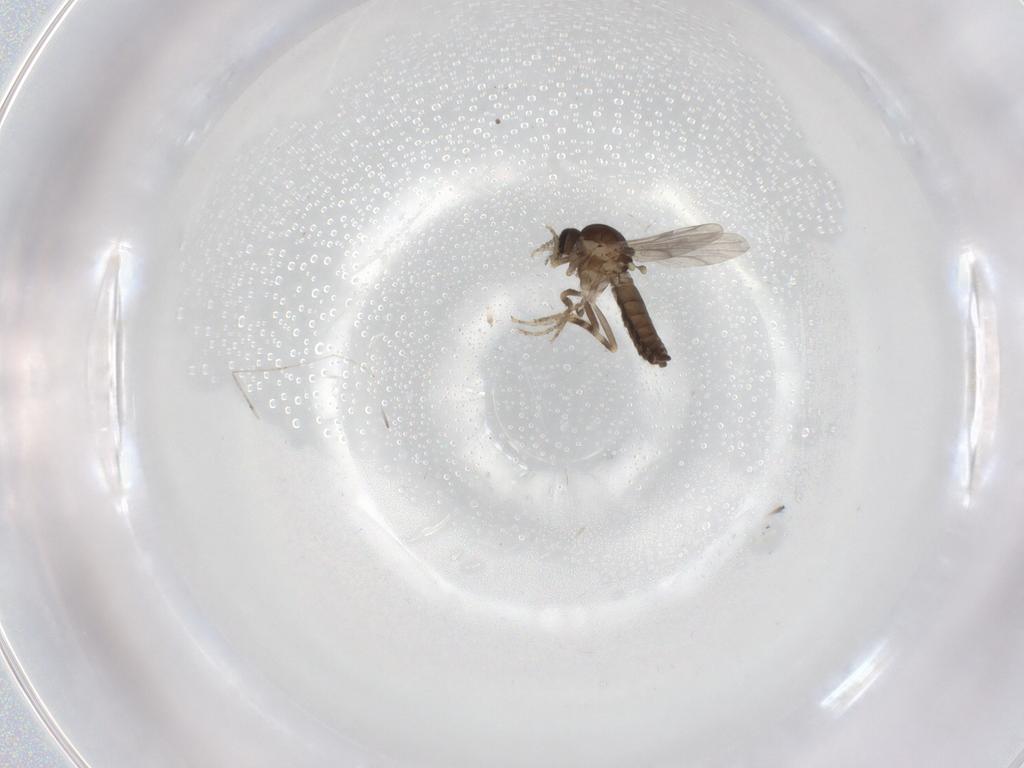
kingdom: Animalia
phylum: Arthropoda
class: Insecta
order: Diptera
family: Ceratopogonidae
